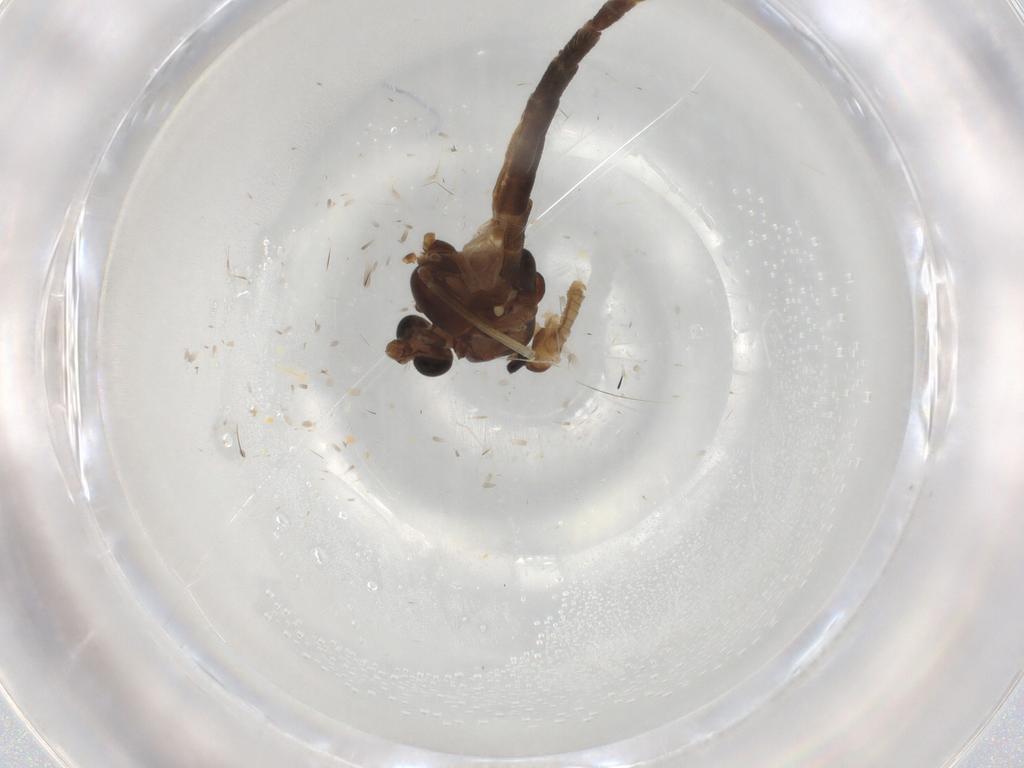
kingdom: Animalia
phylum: Arthropoda
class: Insecta
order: Diptera
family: Chironomidae
